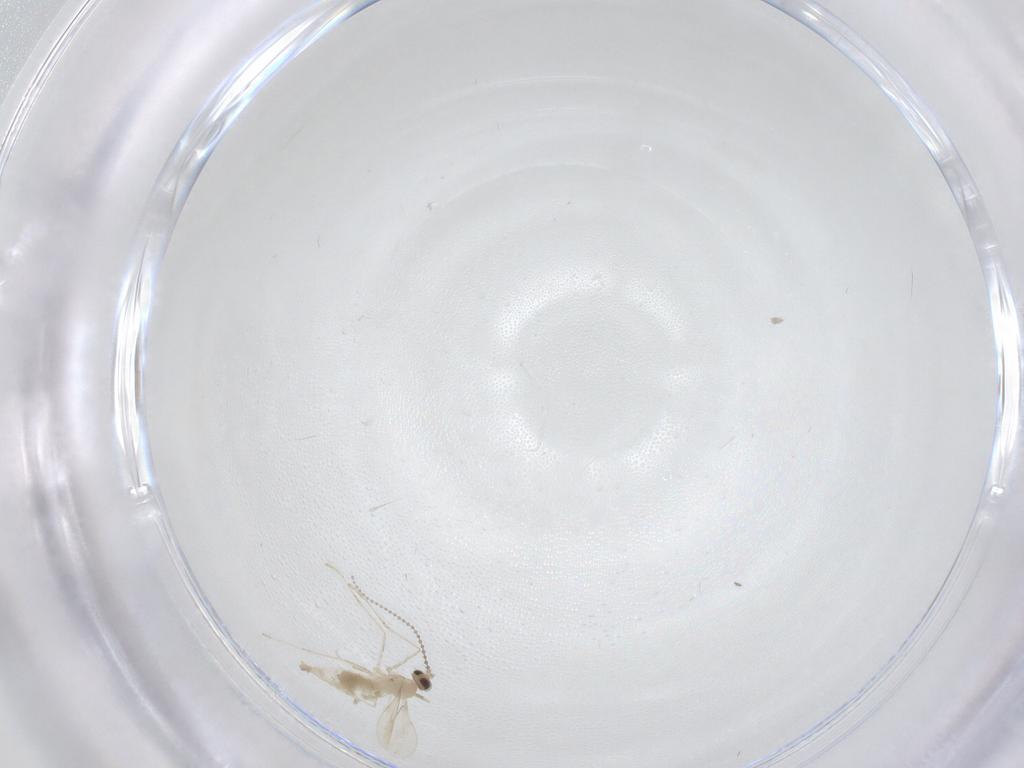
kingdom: Animalia
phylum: Arthropoda
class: Insecta
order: Diptera
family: Cecidomyiidae
